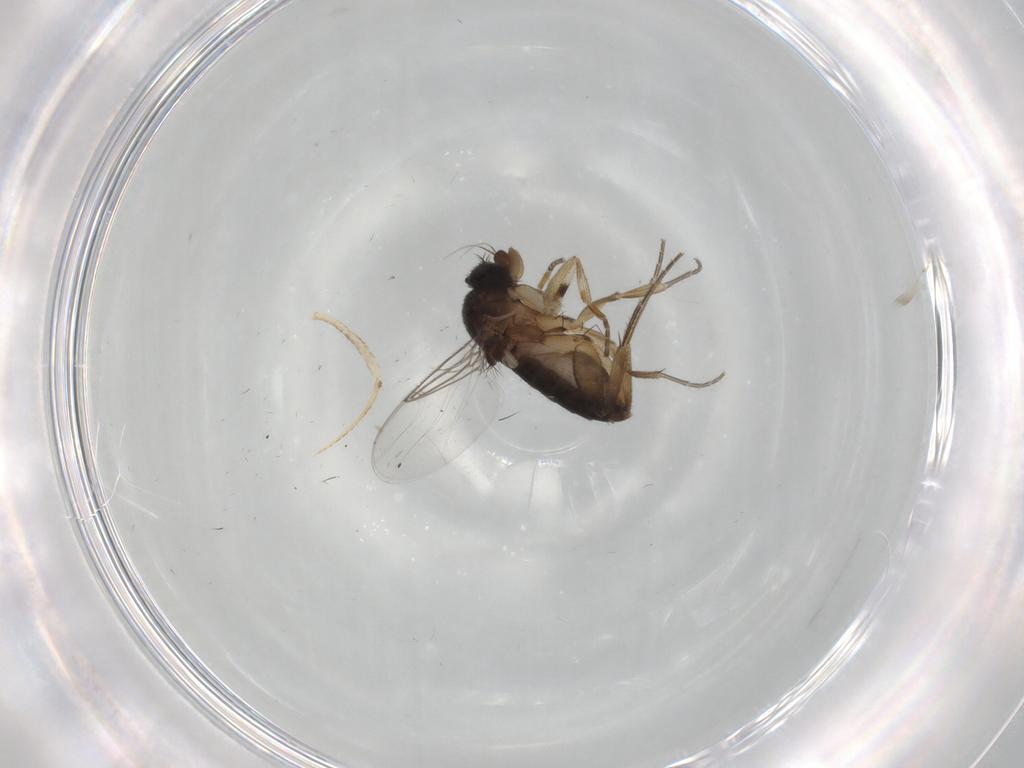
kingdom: Animalia
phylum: Arthropoda
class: Insecta
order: Diptera
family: Phoridae
